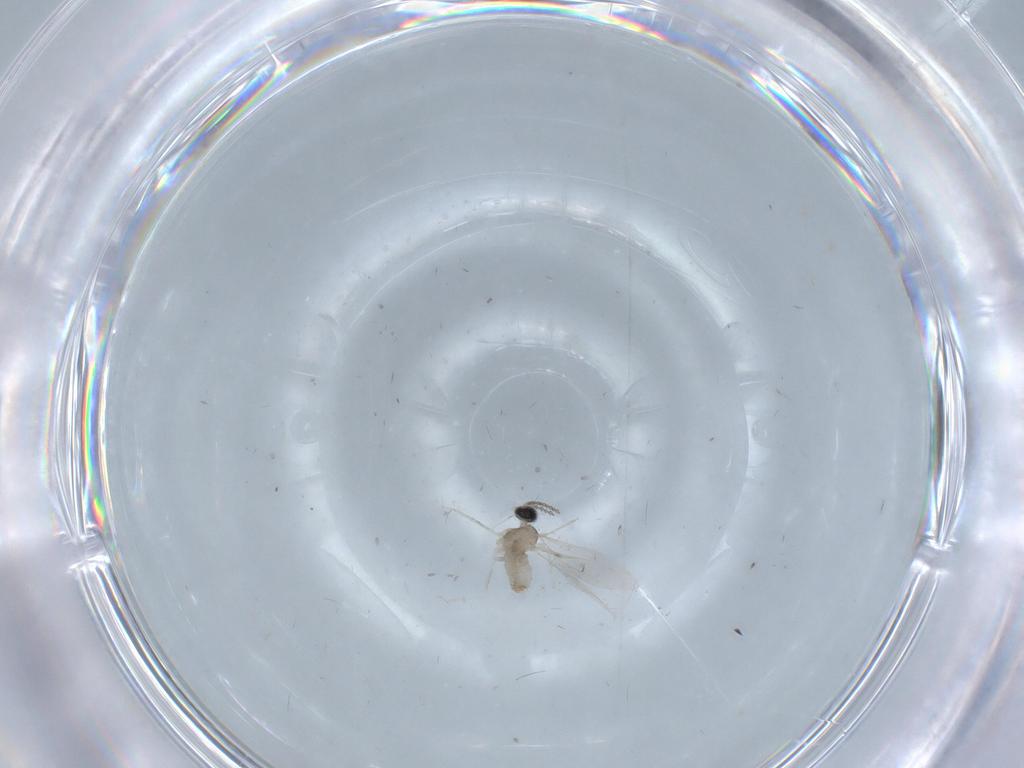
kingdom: Animalia
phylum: Arthropoda
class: Insecta
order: Diptera
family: Cecidomyiidae
